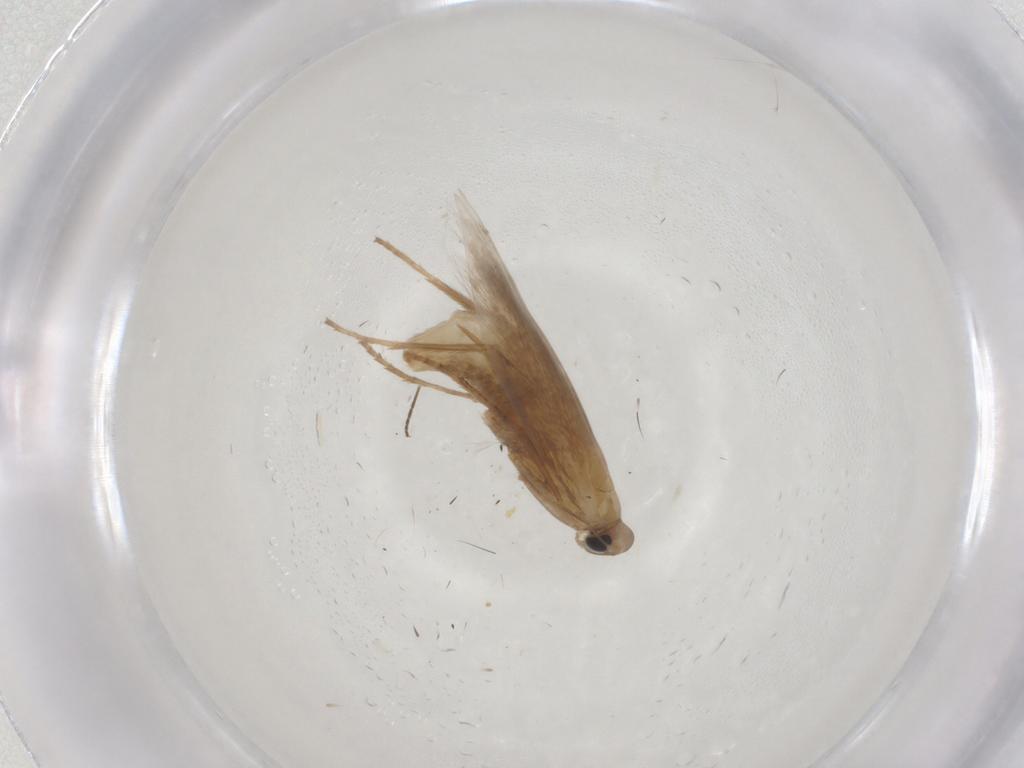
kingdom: Animalia
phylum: Arthropoda
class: Insecta
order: Lepidoptera
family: Tischeriidae
